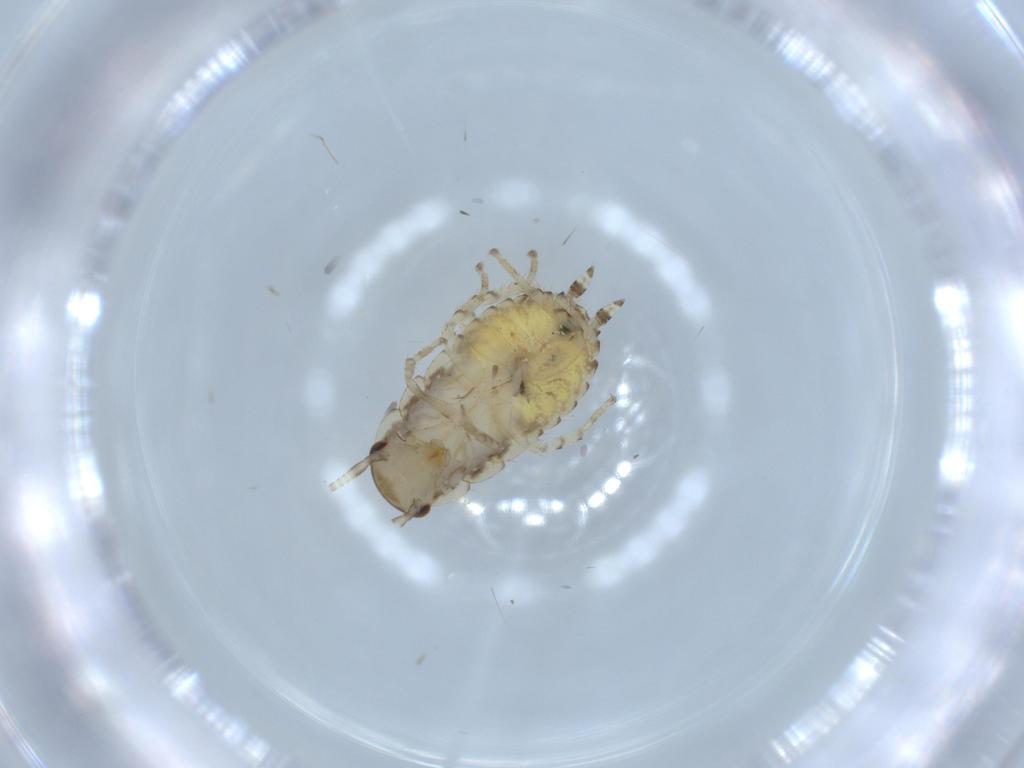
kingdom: Animalia
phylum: Arthropoda
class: Insecta
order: Blattodea
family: Ectobiidae
